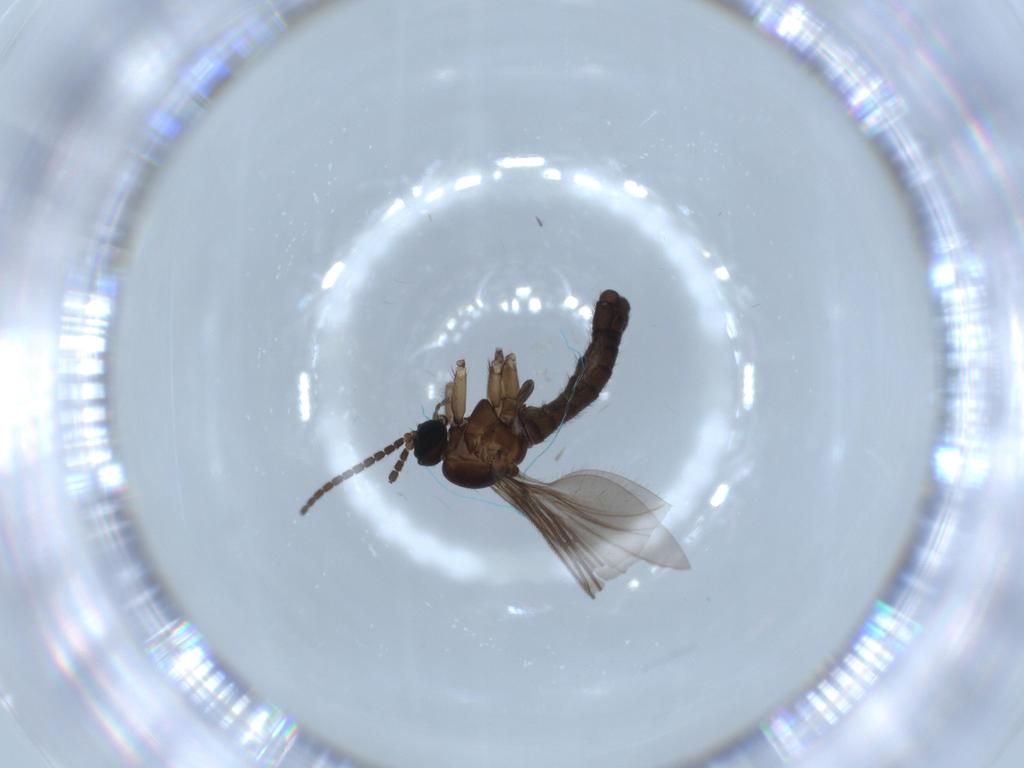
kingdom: Animalia
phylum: Arthropoda
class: Insecta
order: Diptera
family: Sciaridae
